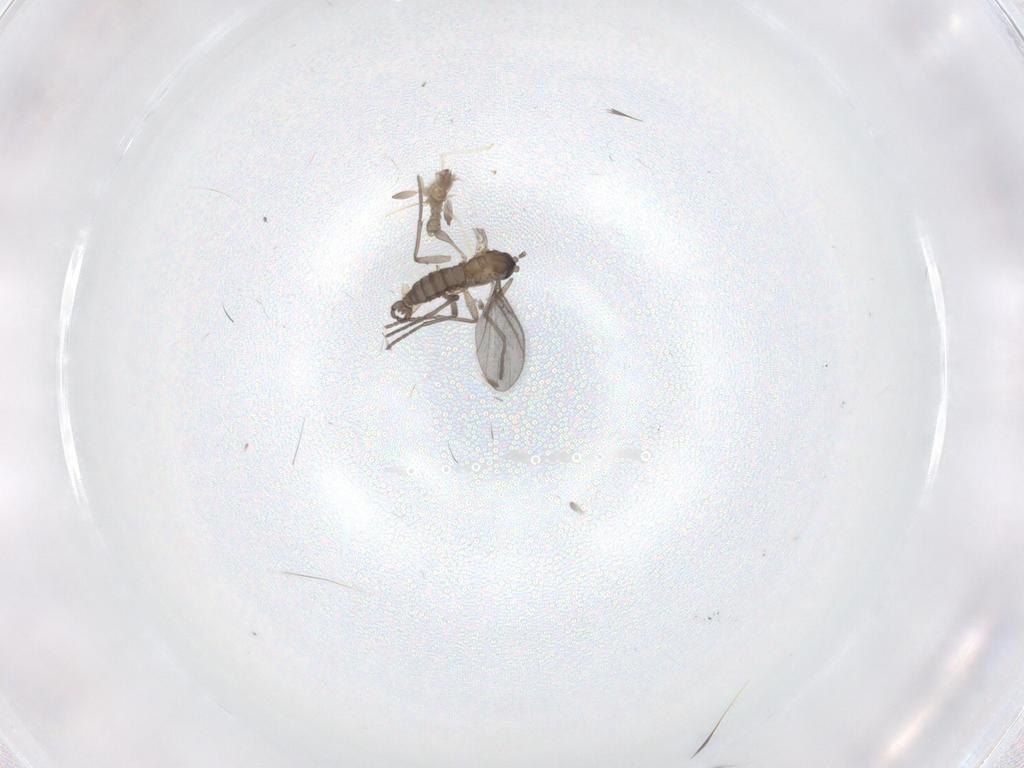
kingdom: Animalia
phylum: Arthropoda
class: Insecta
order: Diptera
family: Sciaridae
